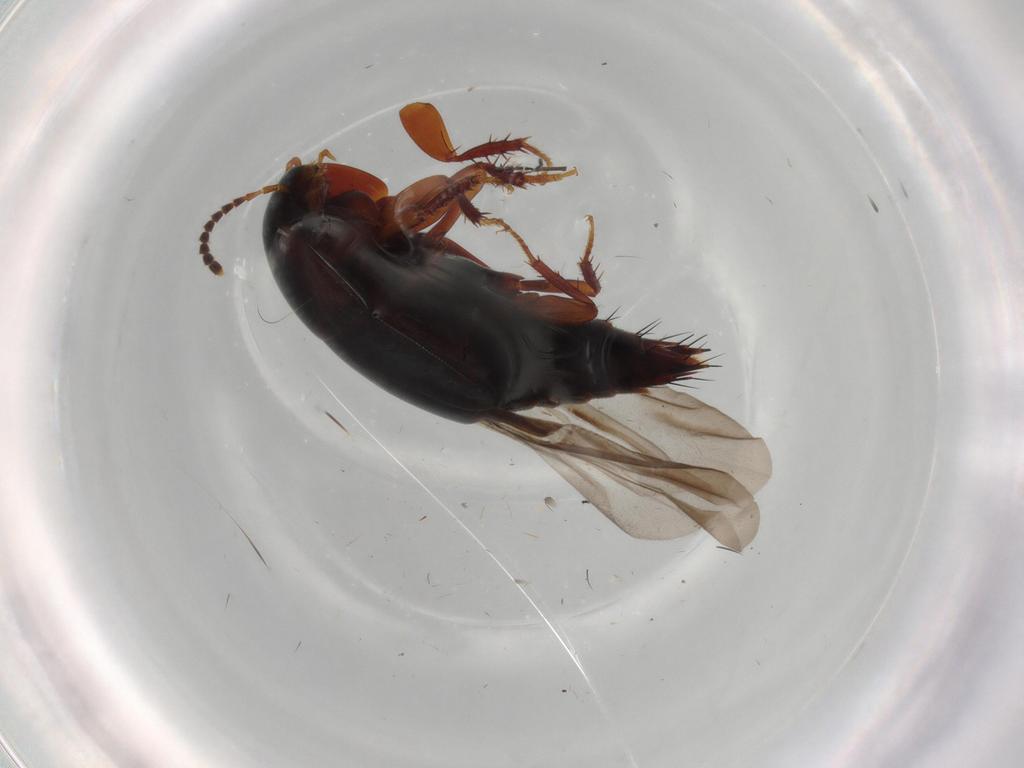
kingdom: Animalia
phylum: Arthropoda
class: Insecta
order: Coleoptera
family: Staphylinidae
